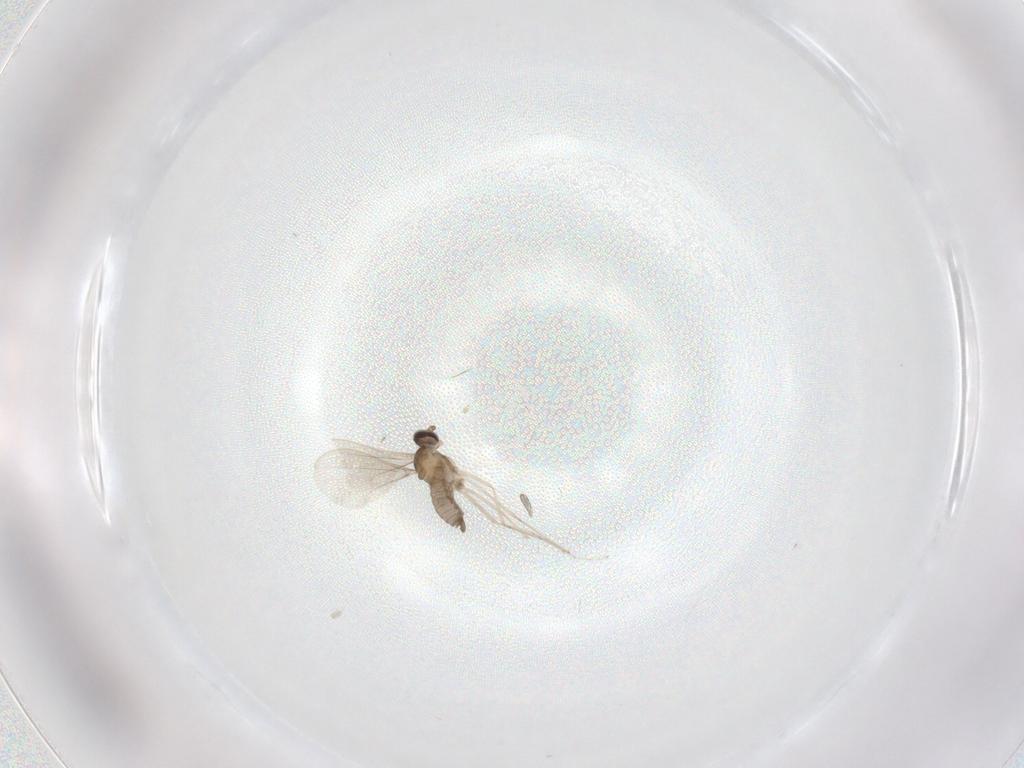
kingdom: Animalia
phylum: Arthropoda
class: Insecta
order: Diptera
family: Cecidomyiidae
